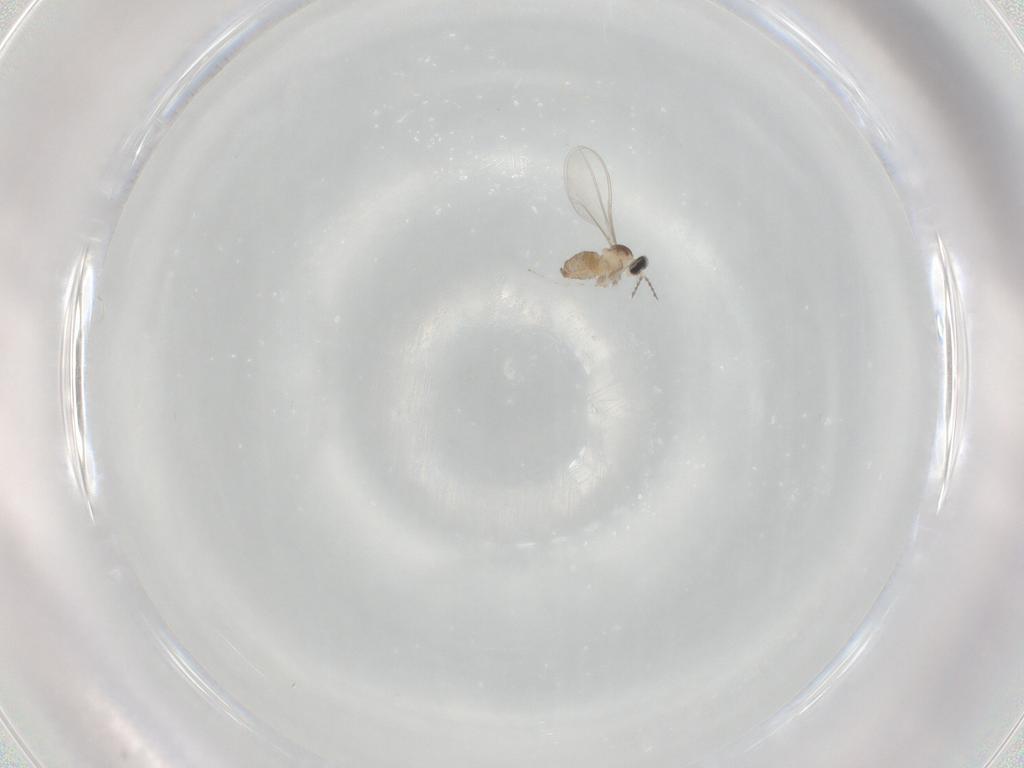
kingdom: Animalia
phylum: Arthropoda
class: Insecta
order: Diptera
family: Cecidomyiidae
